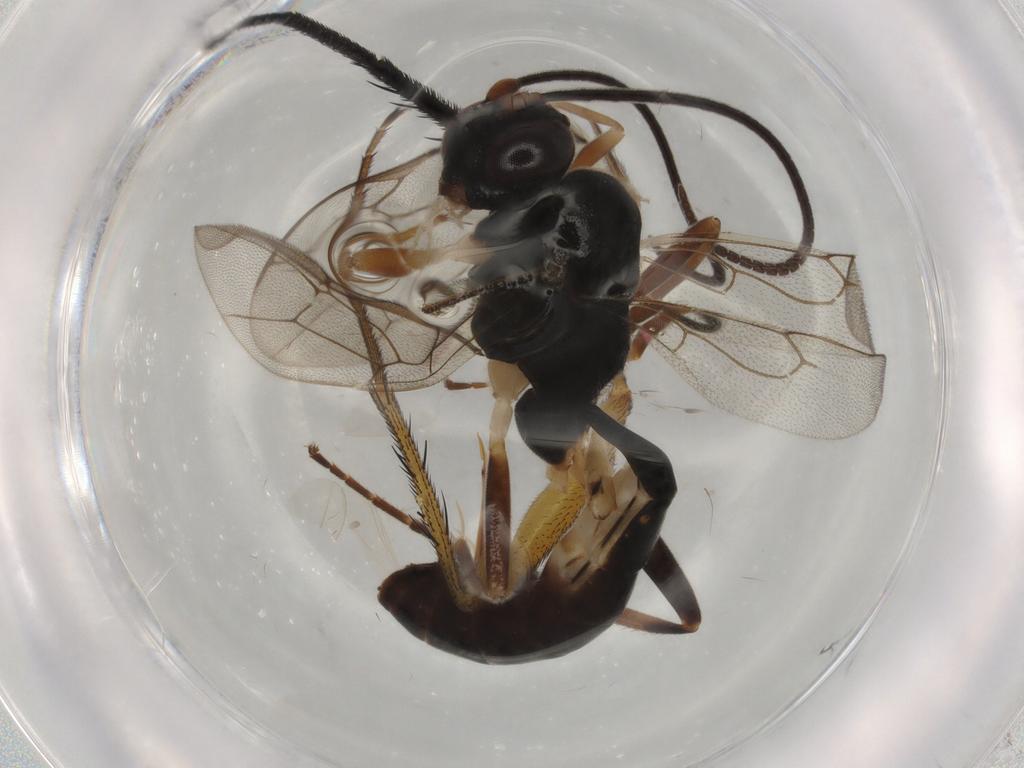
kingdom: Animalia
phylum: Arthropoda
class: Insecta
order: Hymenoptera
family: Ichneumonidae
